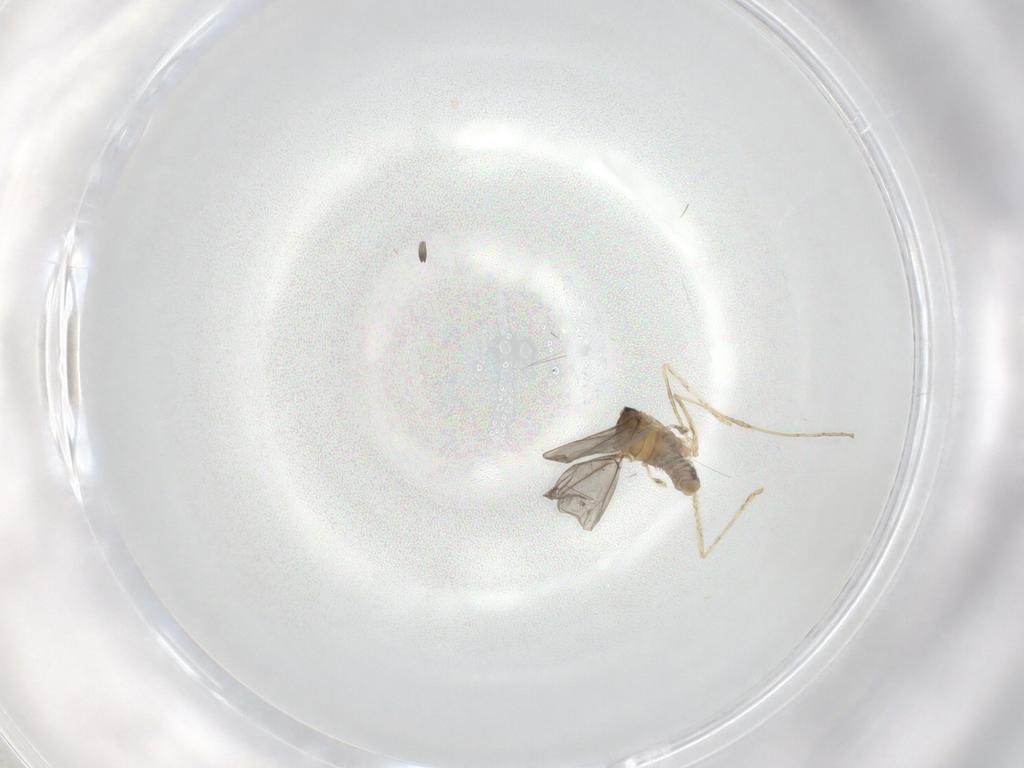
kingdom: Animalia
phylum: Arthropoda
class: Insecta
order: Diptera
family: Cecidomyiidae
